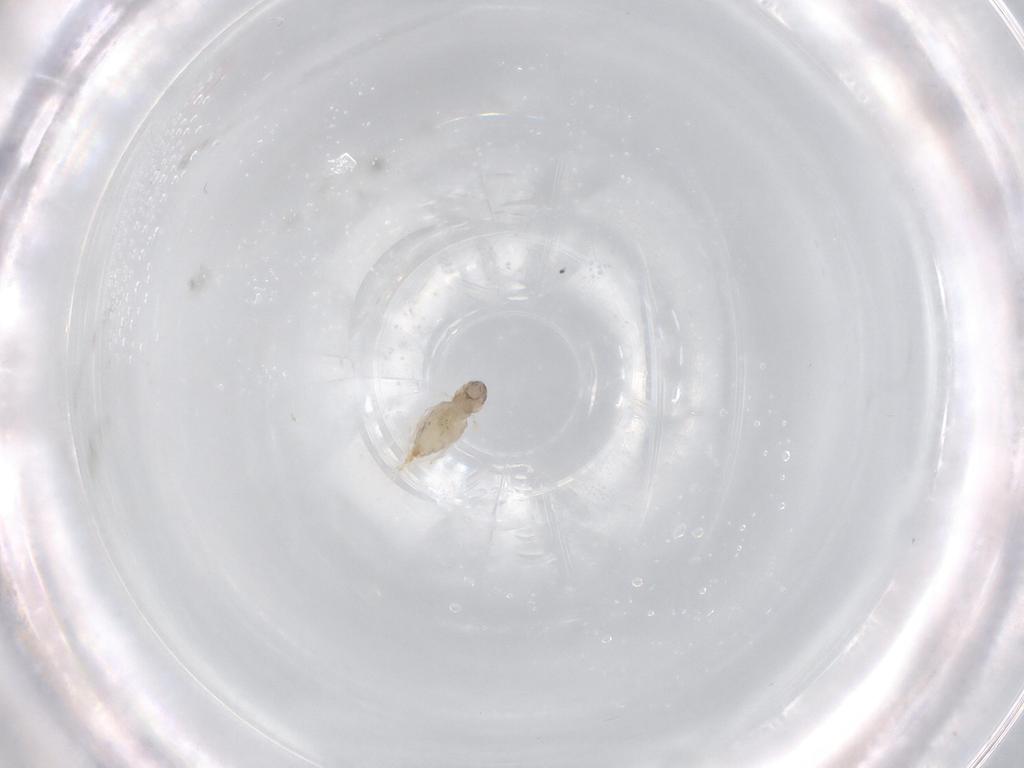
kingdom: Animalia
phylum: Arthropoda
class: Insecta
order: Diptera
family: Cecidomyiidae
